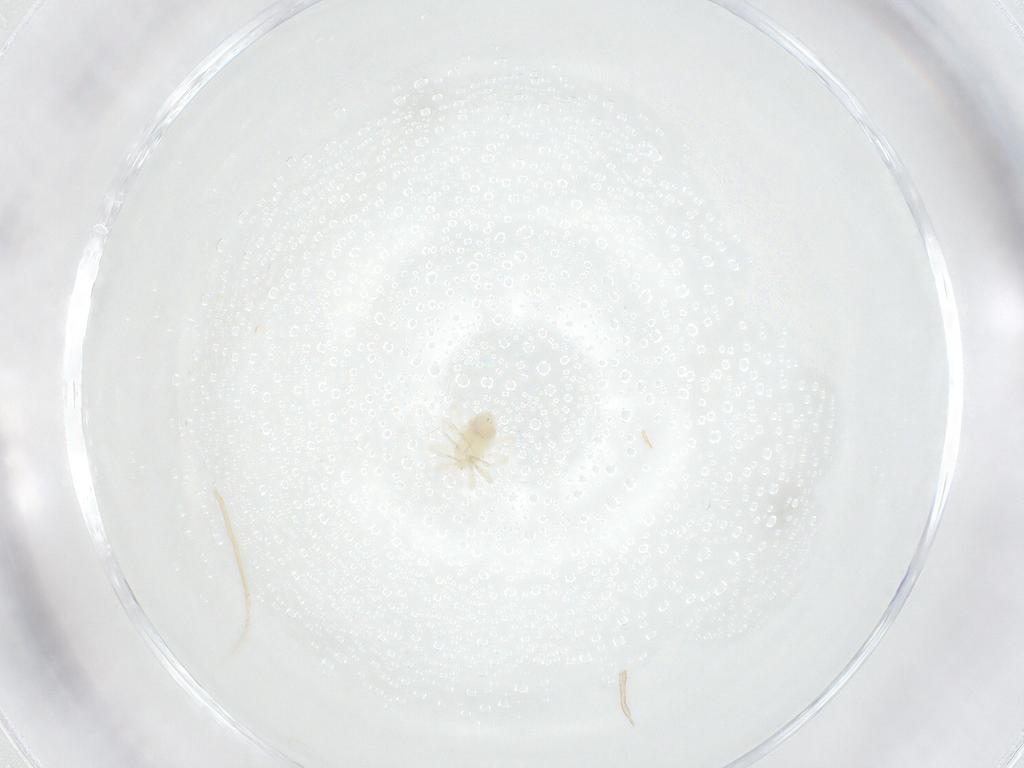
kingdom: Animalia
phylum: Arthropoda
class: Arachnida
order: Trombidiformes
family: Anystidae
